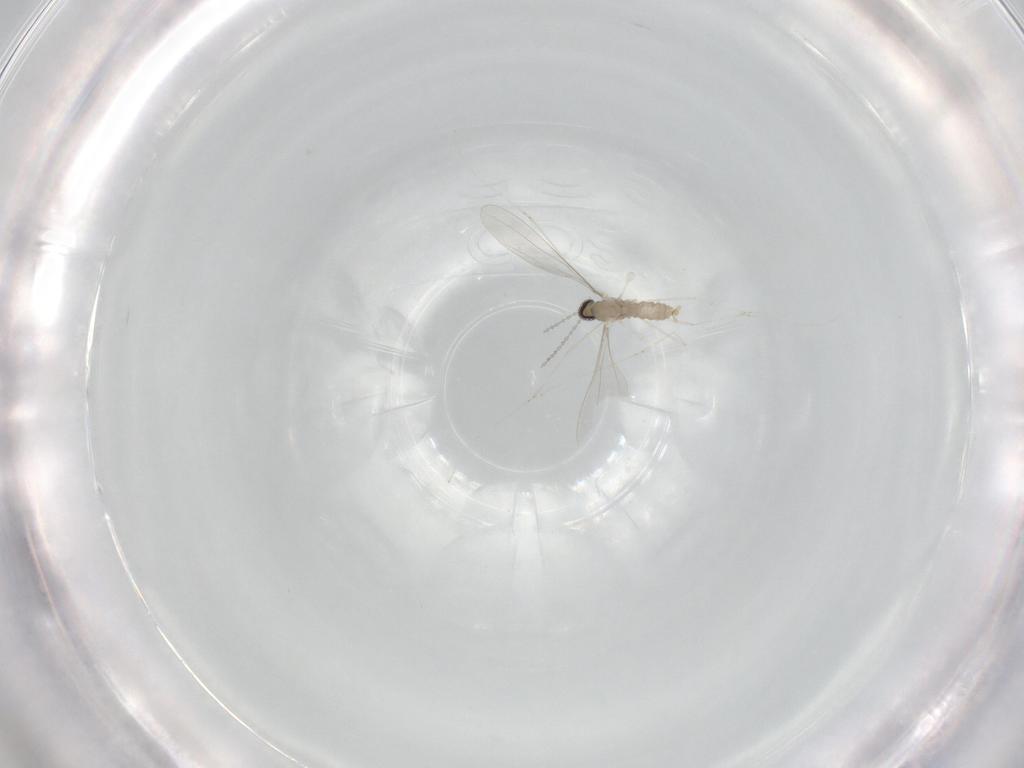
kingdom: Animalia
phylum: Arthropoda
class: Insecta
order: Diptera
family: Cecidomyiidae
